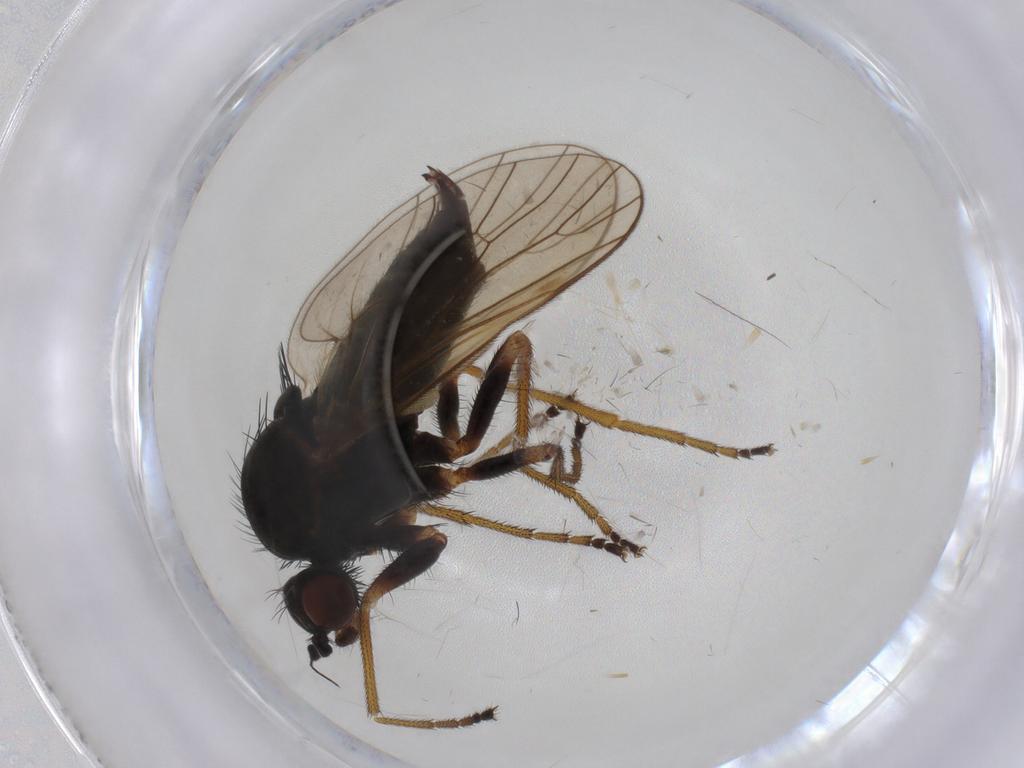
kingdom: Animalia
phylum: Arthropoda
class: Insecta
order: Diptera
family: Brachystomatidae
